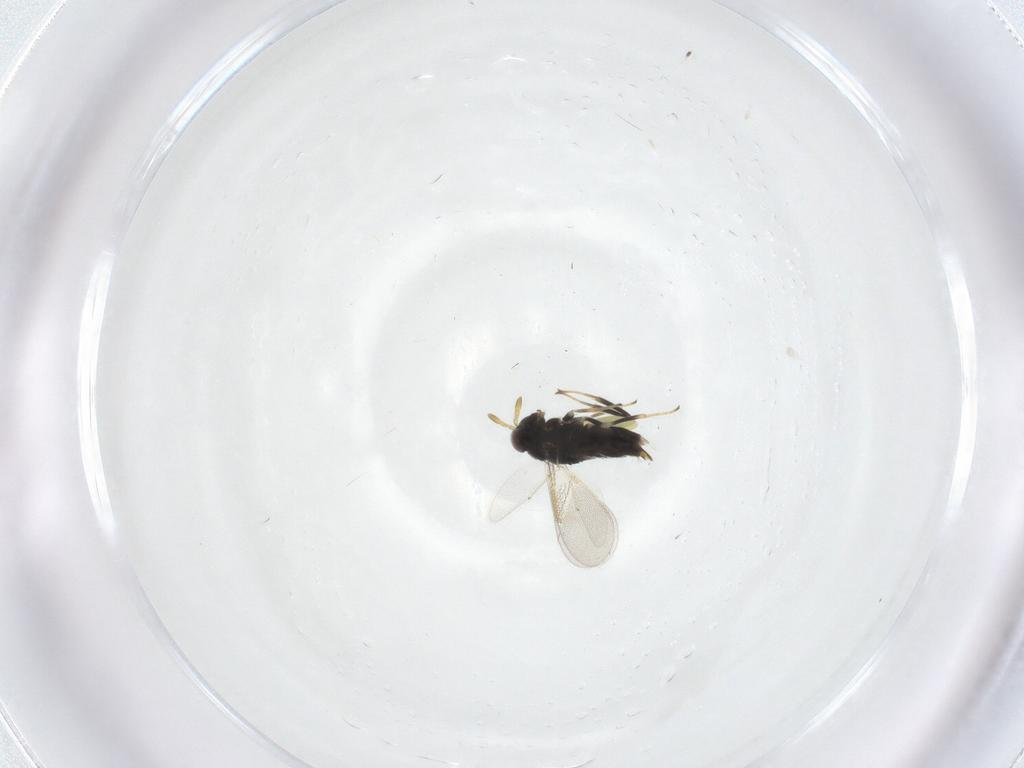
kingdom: Animalia
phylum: Arthropoda
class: Insecta
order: Hymenoptera
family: Aphelinidae
